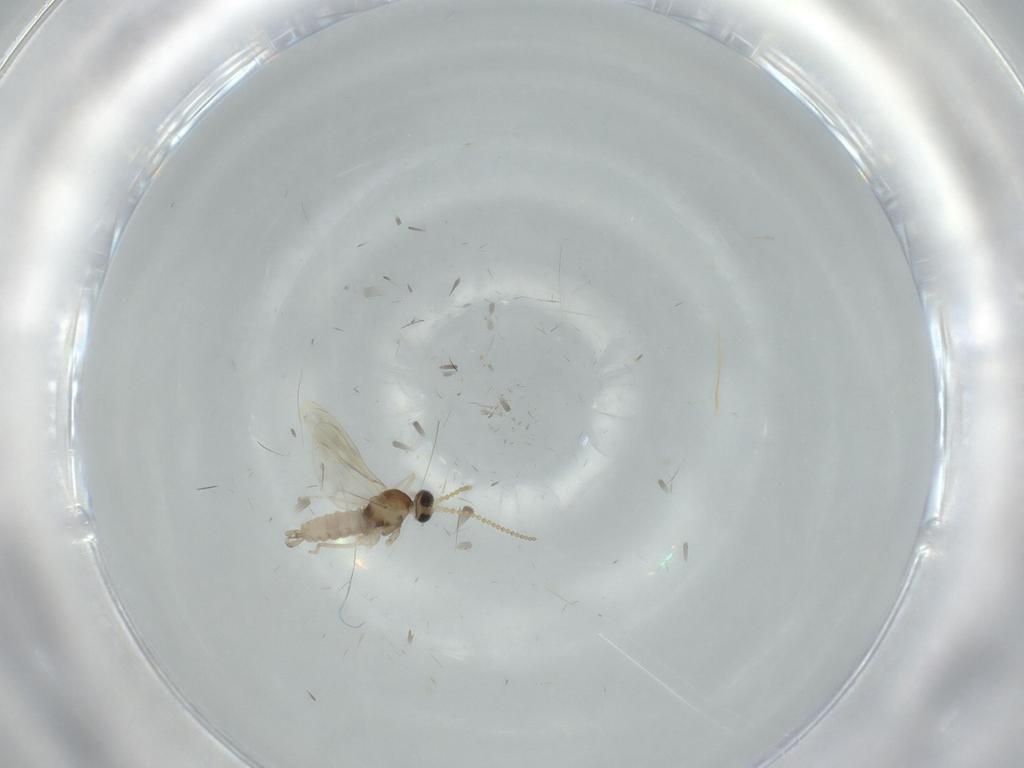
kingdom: Animalia
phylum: Arthropoda
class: Insecta
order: Diptera
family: Cecidomyiidae
